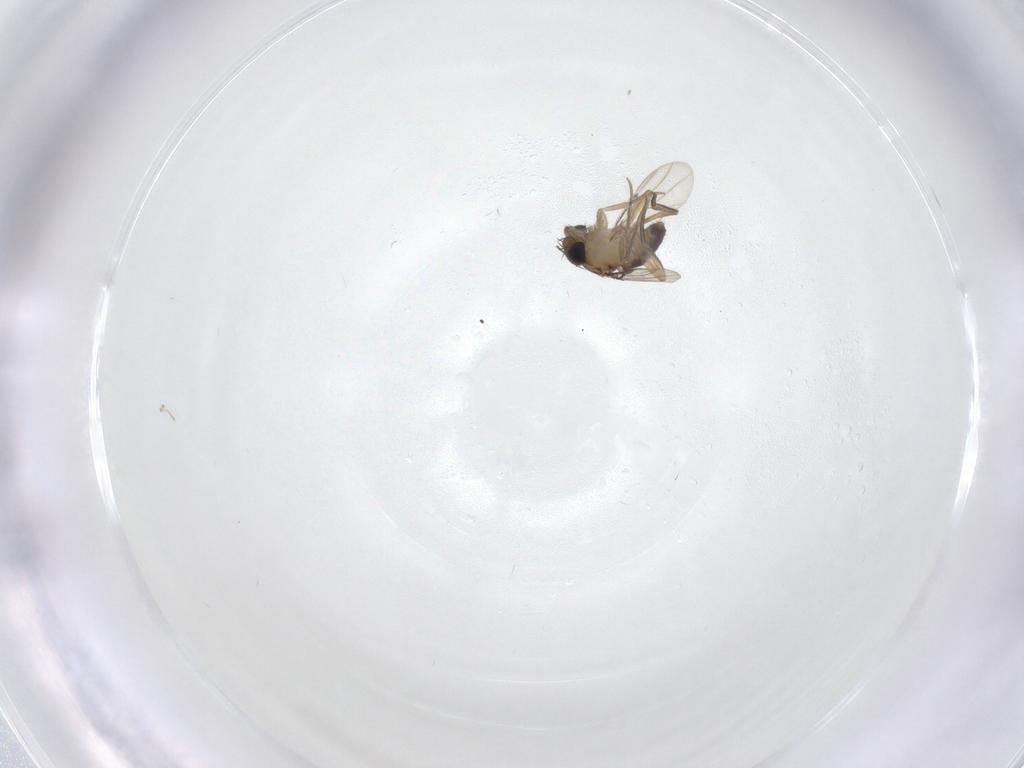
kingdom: Animalia
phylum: Arthropoda
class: Insecta
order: Diptera
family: Phoridae
